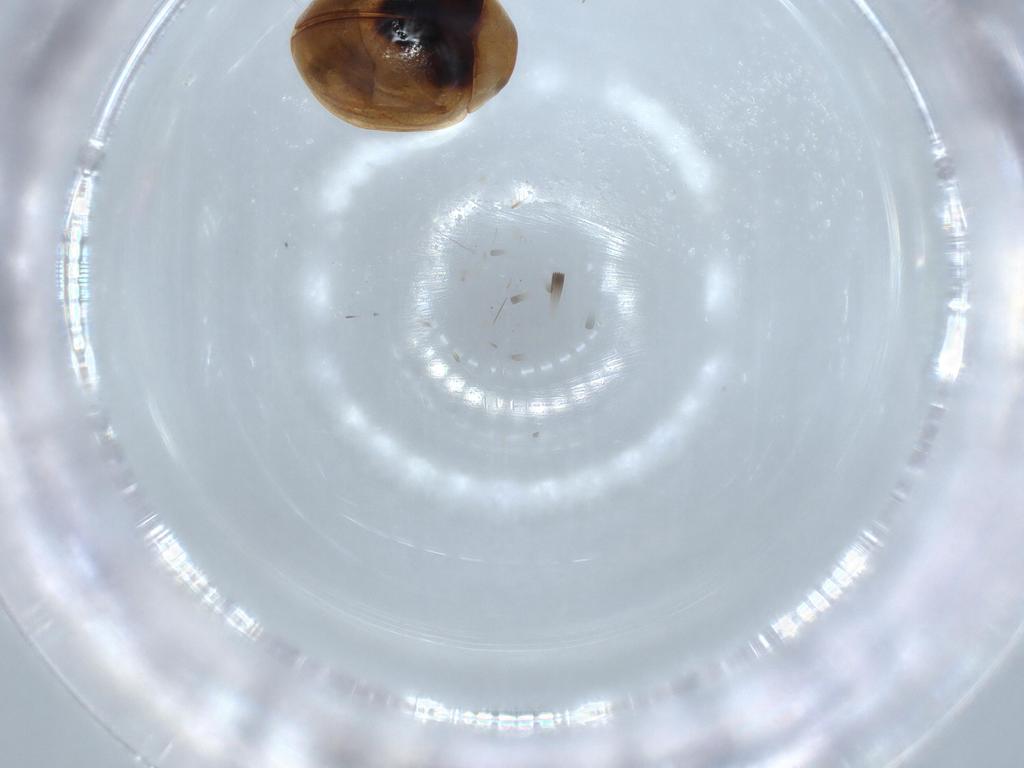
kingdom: Animalia
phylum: Arthropoda
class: Insecta
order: Coleoptera
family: Coccinellidae
